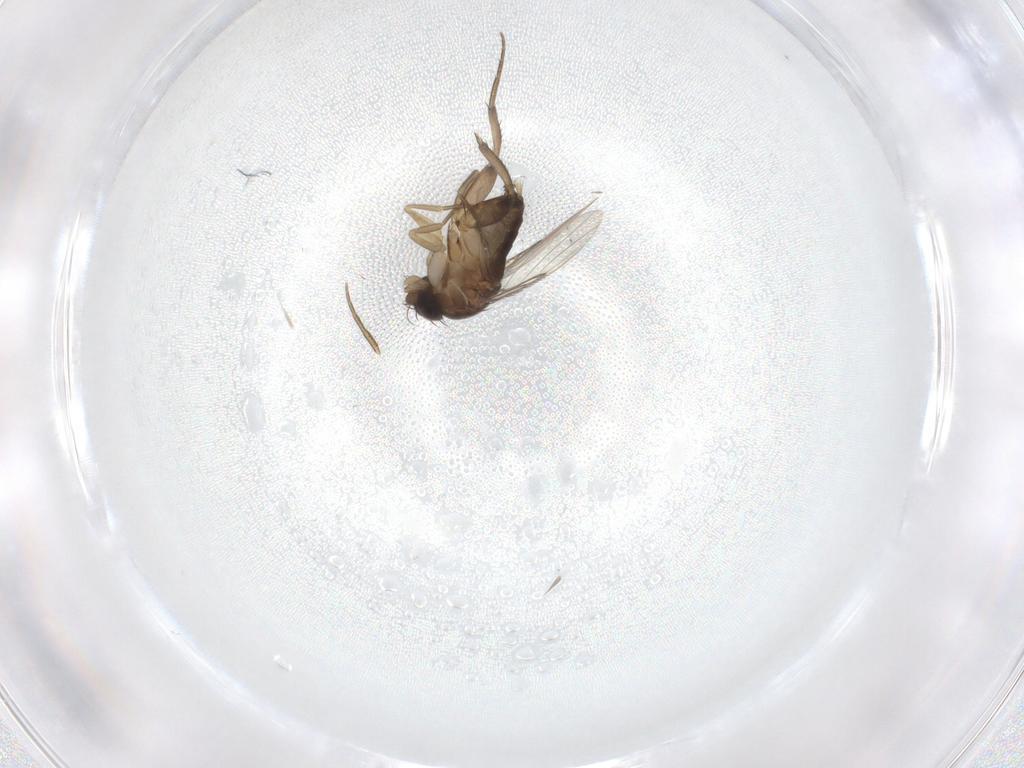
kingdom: Animalia
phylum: Arthropoda
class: Insecta
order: Diptera
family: Phoridae
